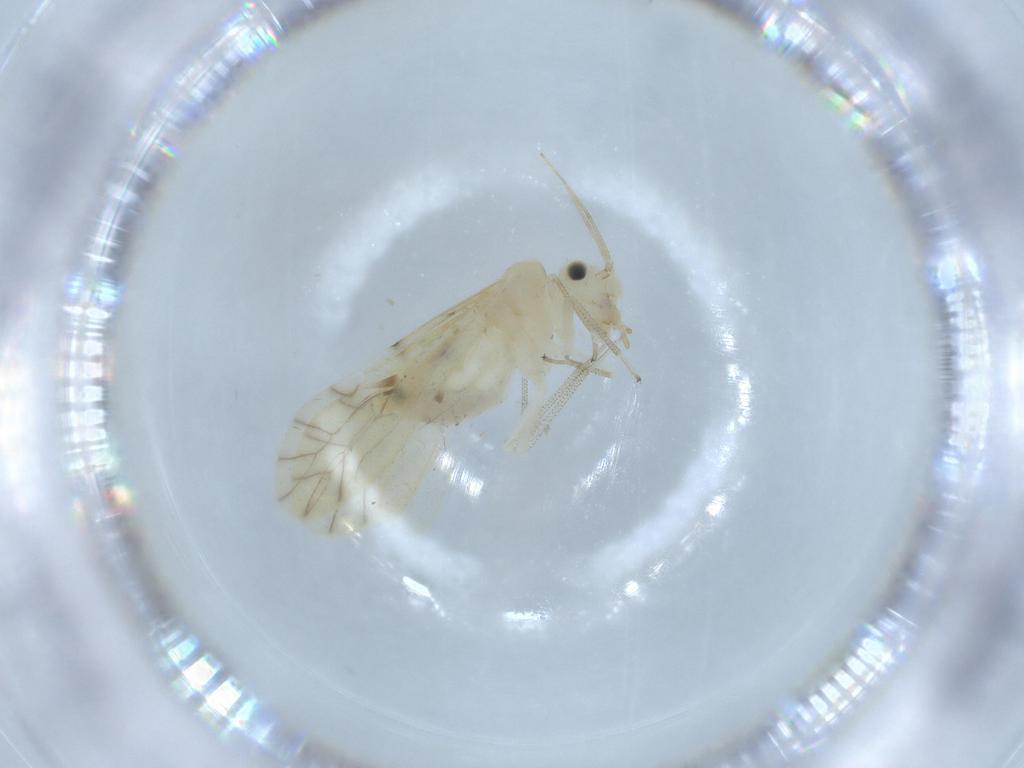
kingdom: Animalia
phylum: Arthropoda
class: Insecta
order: Psocodea
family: Caeciliusidae
